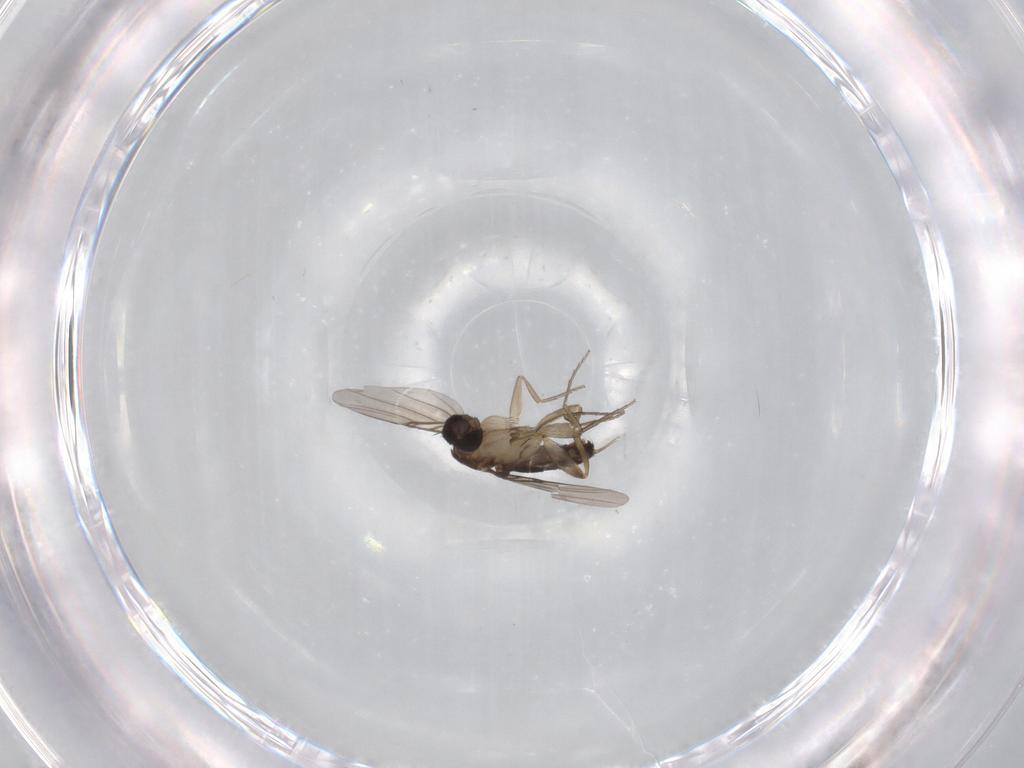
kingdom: Animalia
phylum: Arthropoda
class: Insecta
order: Diptera
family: Phoridae
